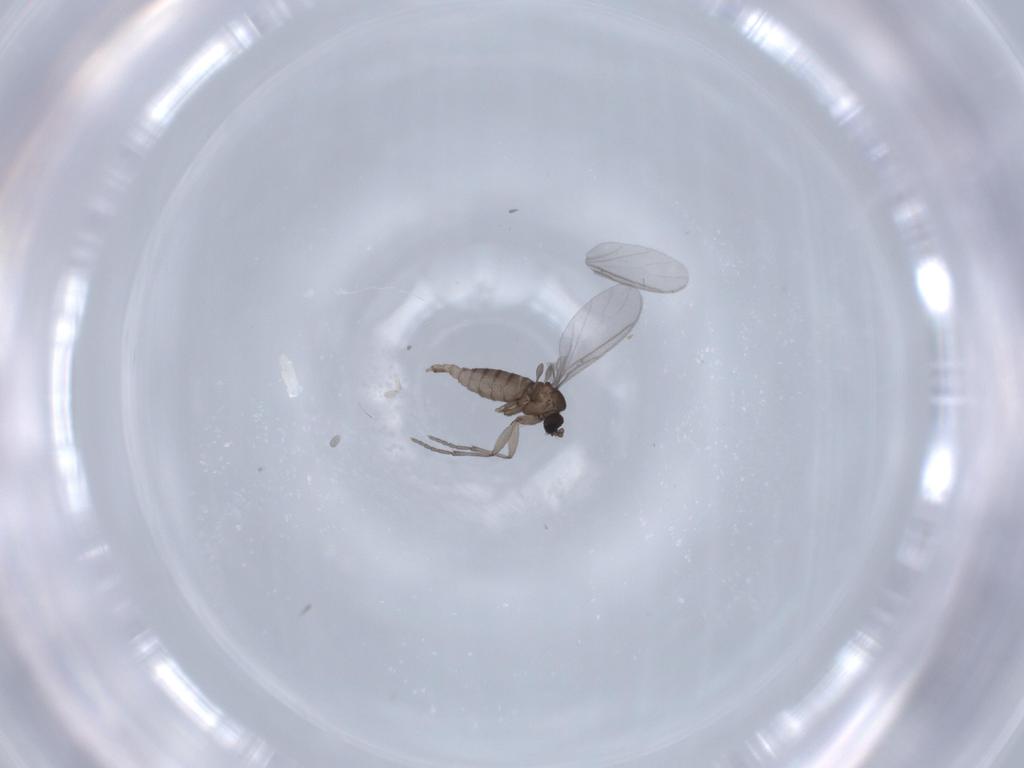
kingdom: Animalia
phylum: Arthropoda
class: Insecta
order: Diptera
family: Sciaridae
